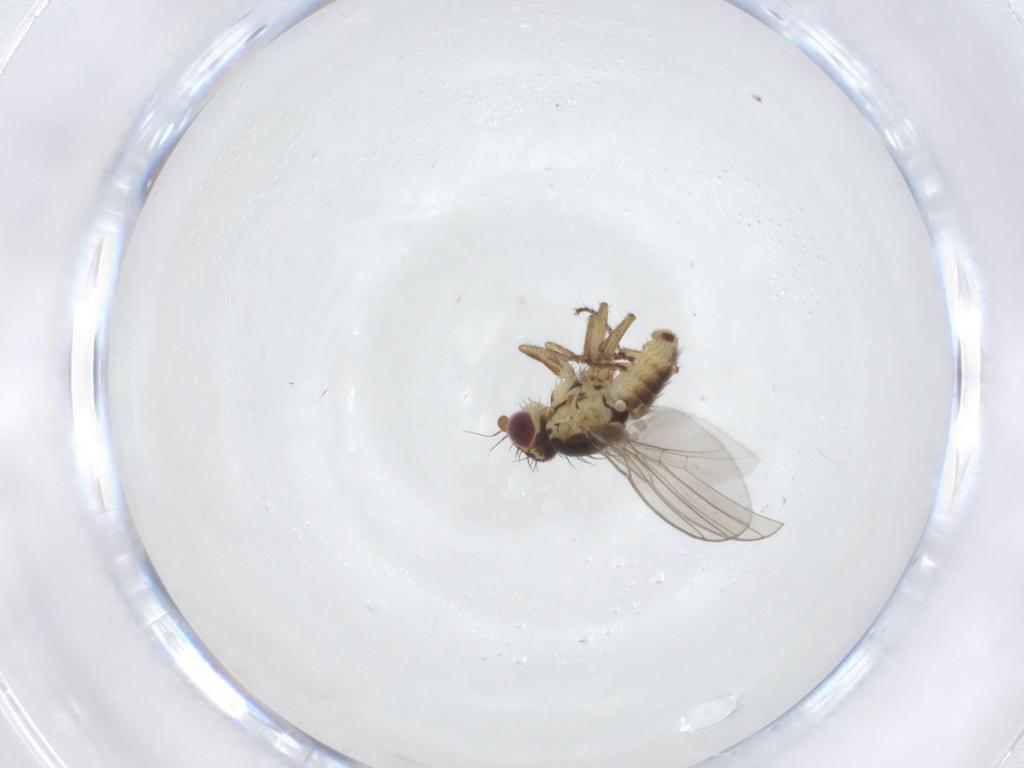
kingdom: Animalia
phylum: Arthropoda
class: Insecta
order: Diptera
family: Agromyzidae
